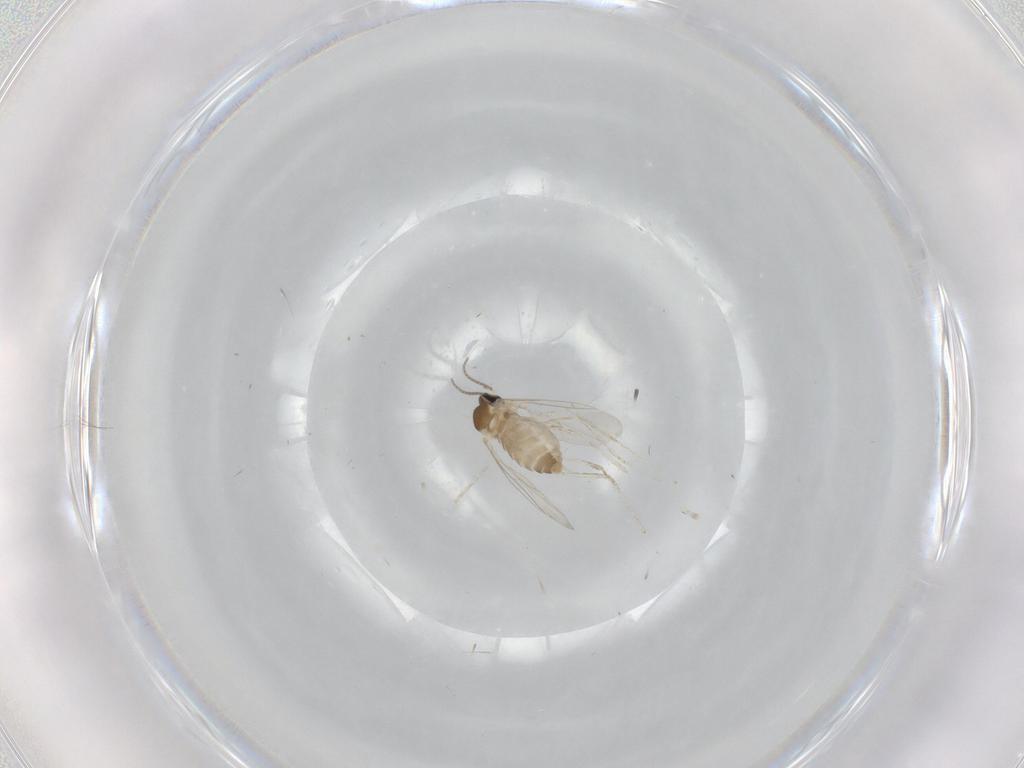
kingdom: Animalia
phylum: Arthropoda
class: Insecta
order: Diptera
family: Cecidomyiidae
